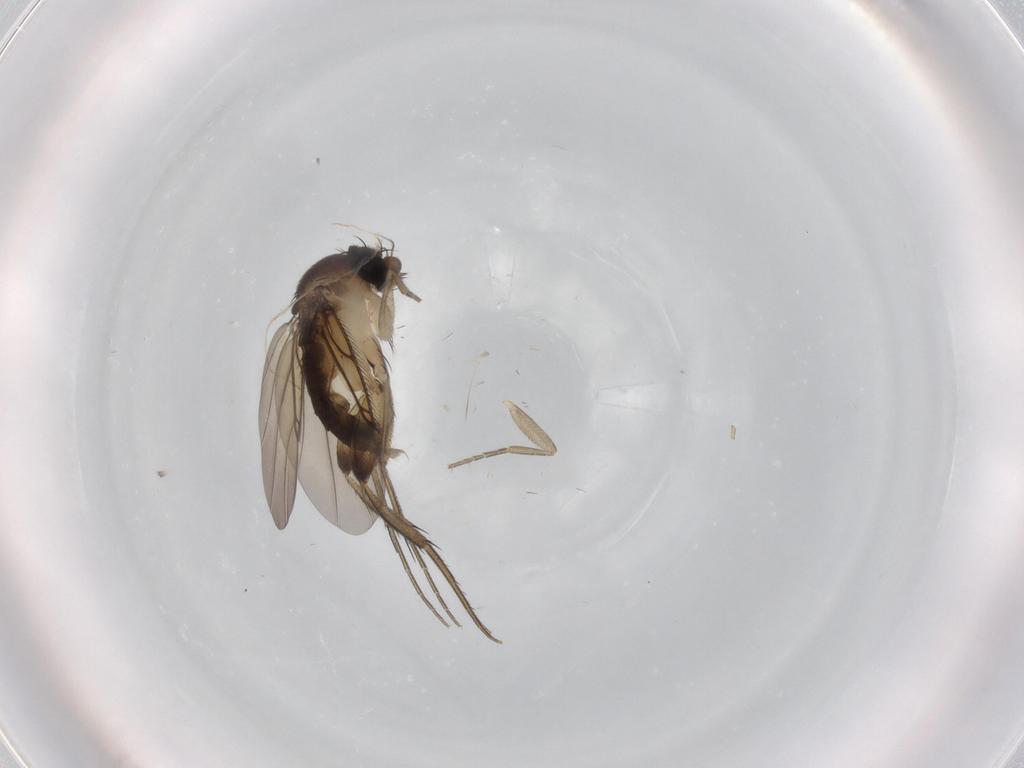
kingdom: Animalia
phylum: Arthropoda
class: Insecta
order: Diptera
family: Phoridae
